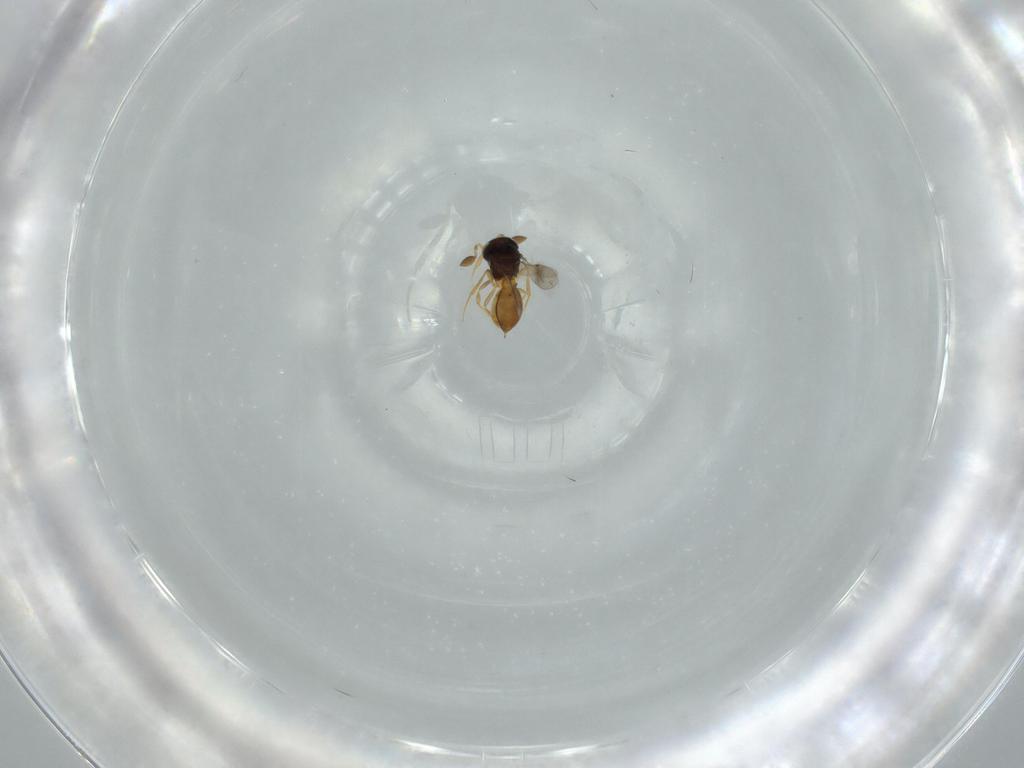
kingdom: Animalia
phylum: Arthropoda
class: Insecta
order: Hymenoptera
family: Scelionidae
